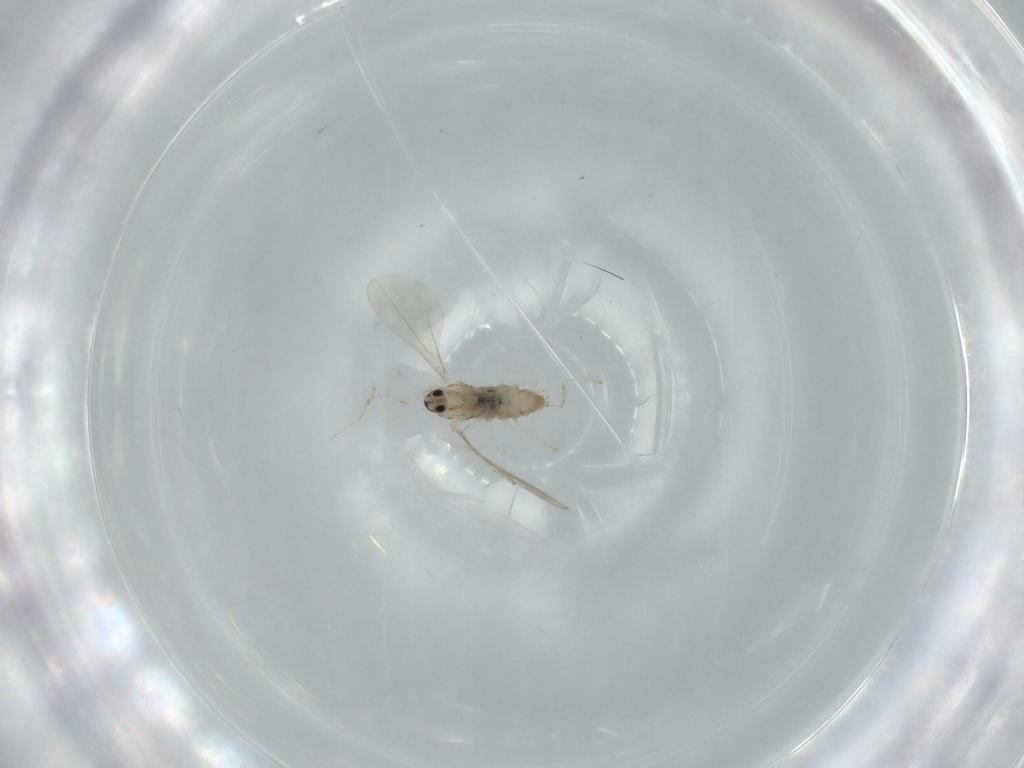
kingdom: Animalia
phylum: Arthropoda
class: Insecta
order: Diptera
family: Cecidomyiidae
